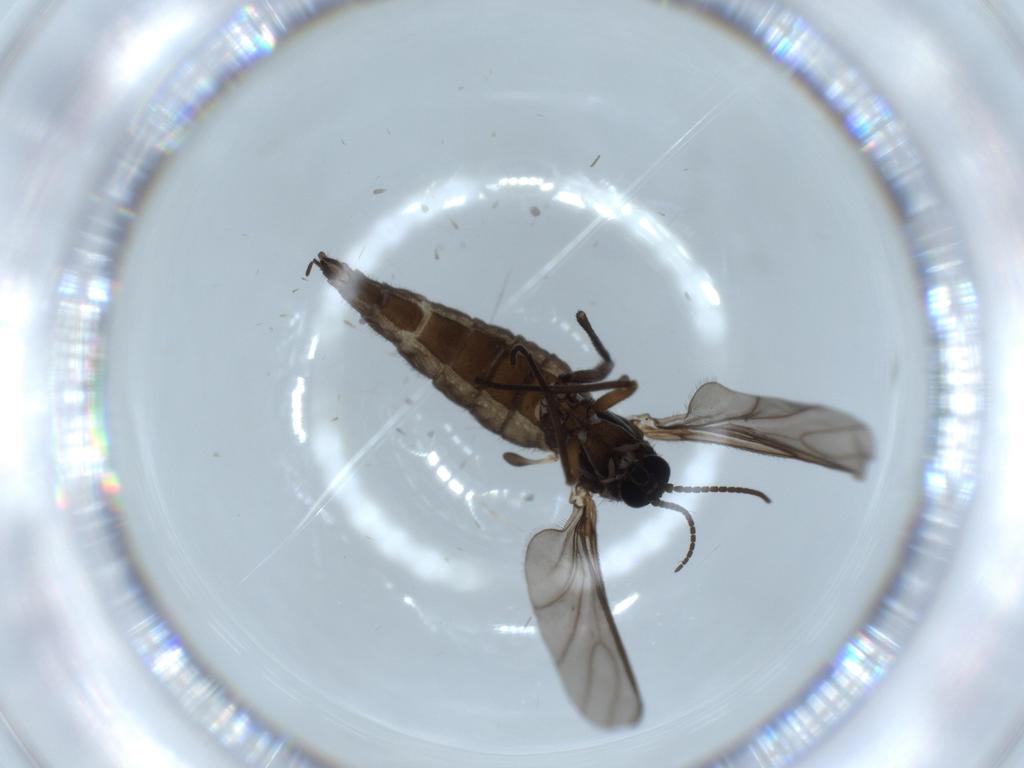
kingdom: Animalia
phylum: Arthropoda
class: Insecta
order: Diptera
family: Sciaridae
